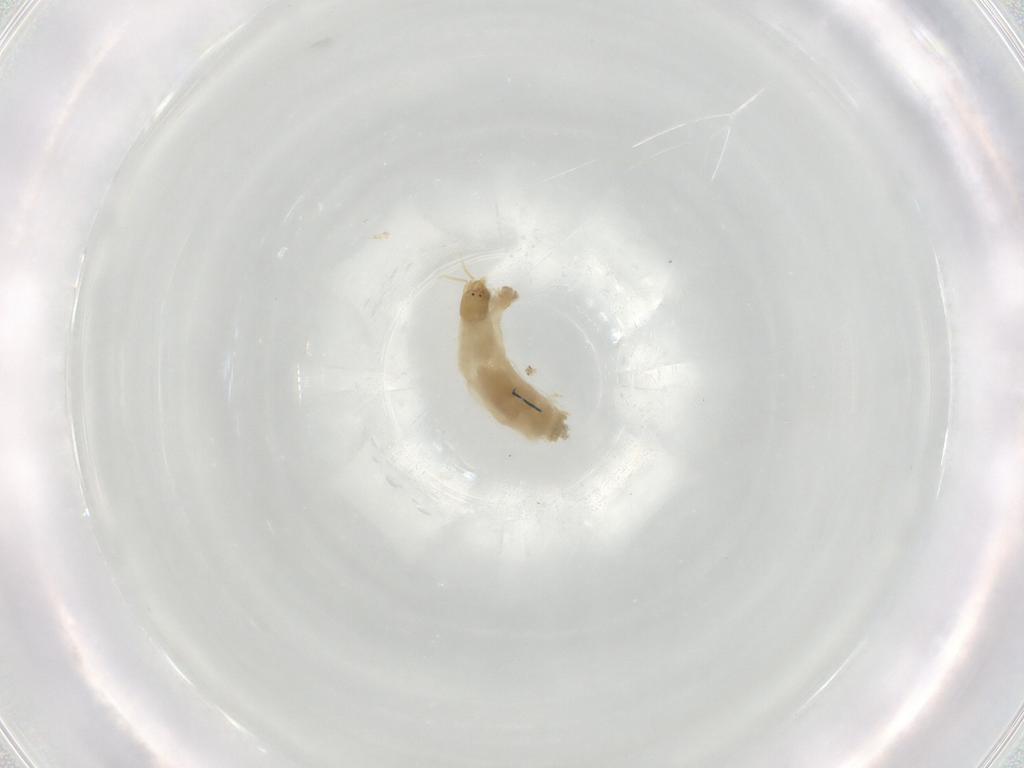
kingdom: Animalia
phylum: Arthropoda
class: Insecta
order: Diptera
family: Chironomidae
